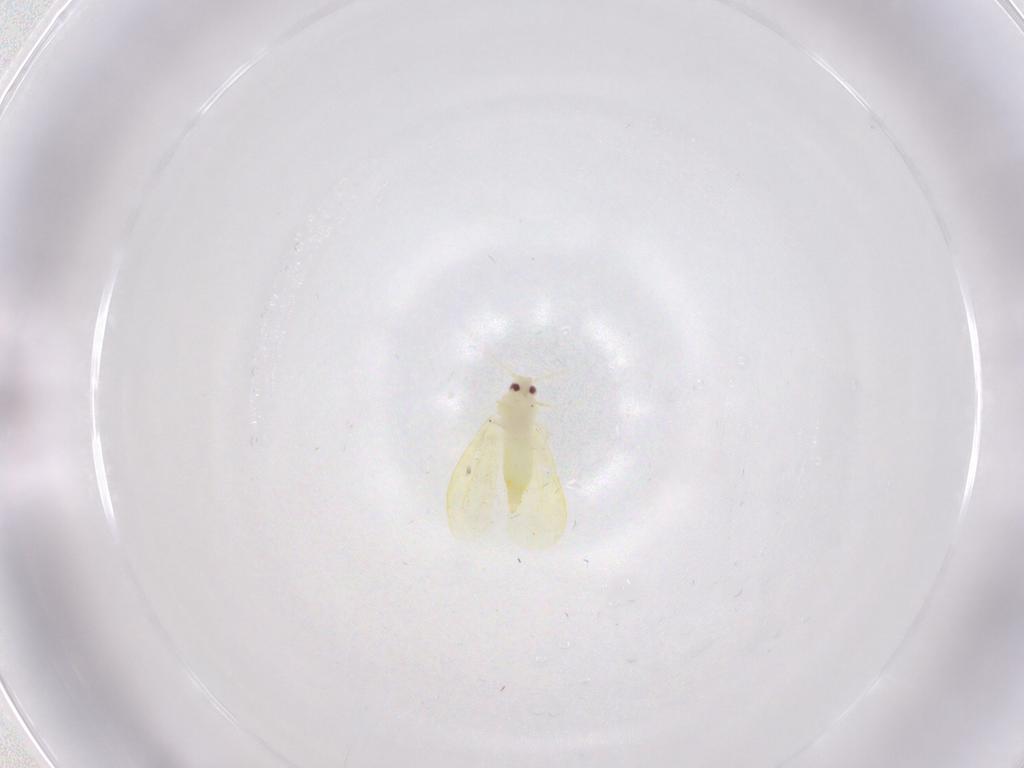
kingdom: Animalia
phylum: Arthropoda
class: Insecta
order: Hemiptera
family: Aleyrodidae
